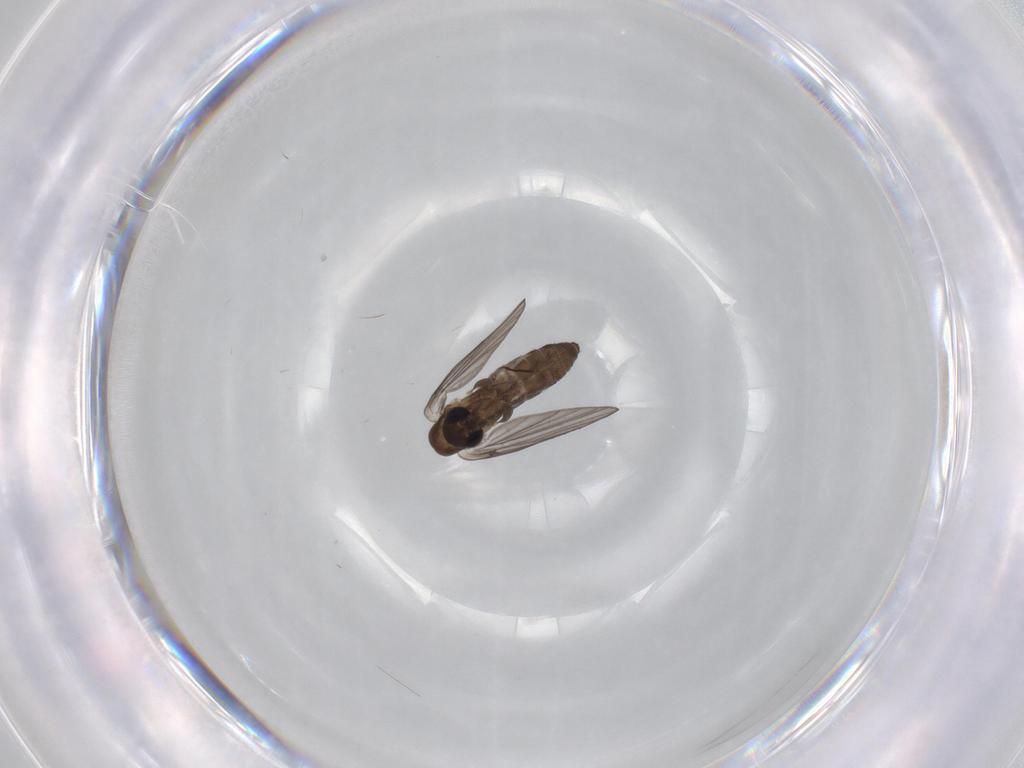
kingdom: Animalia
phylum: Arthropoda
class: Insecta
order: Diptera
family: Psychodidae
